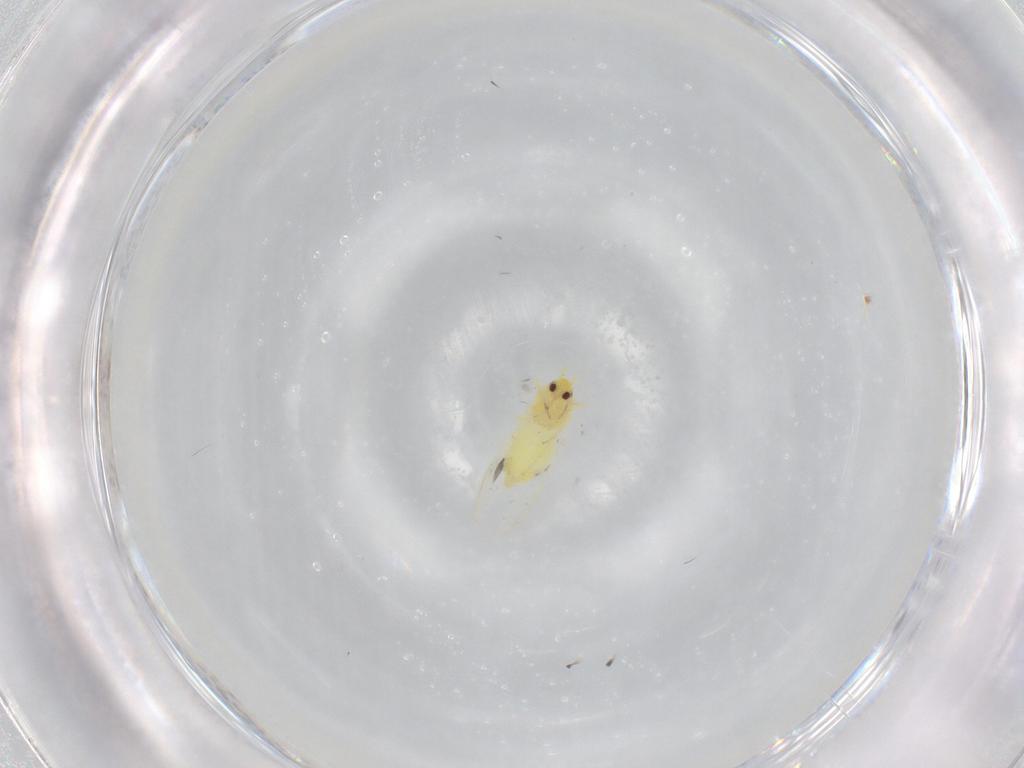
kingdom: Animalia
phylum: Arthropoda
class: Insecta
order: Hemiptera
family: Aleyrodidae
